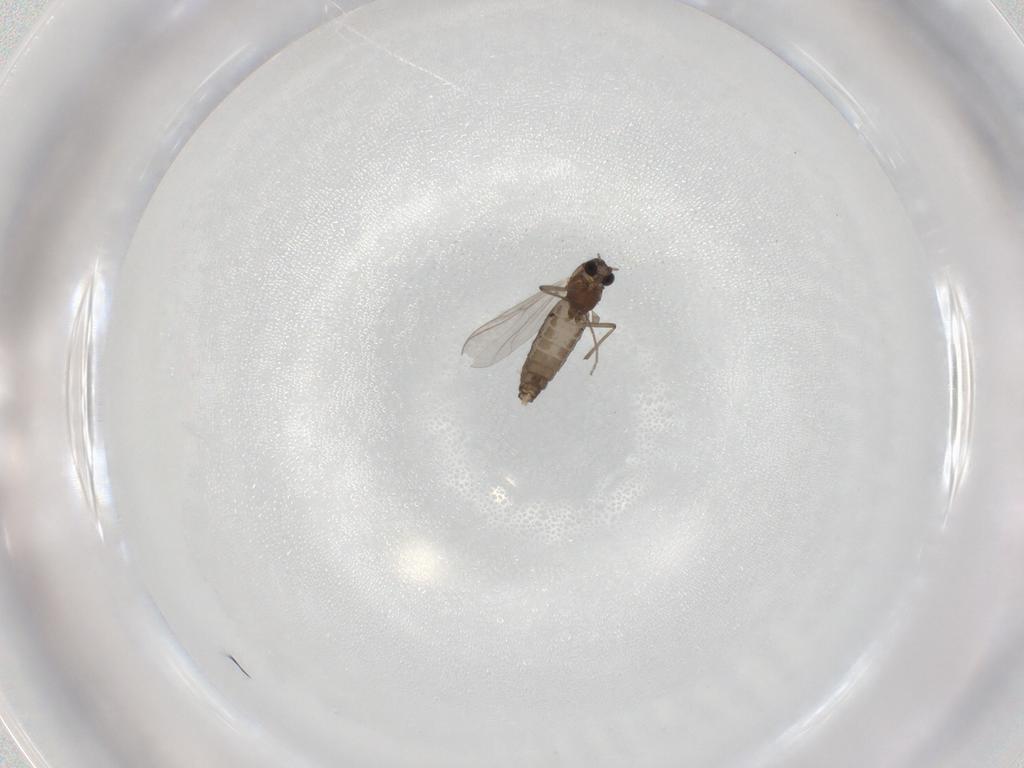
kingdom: Animalia
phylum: Arthropoda
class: Insecta
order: Diptera
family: Chironomidae
